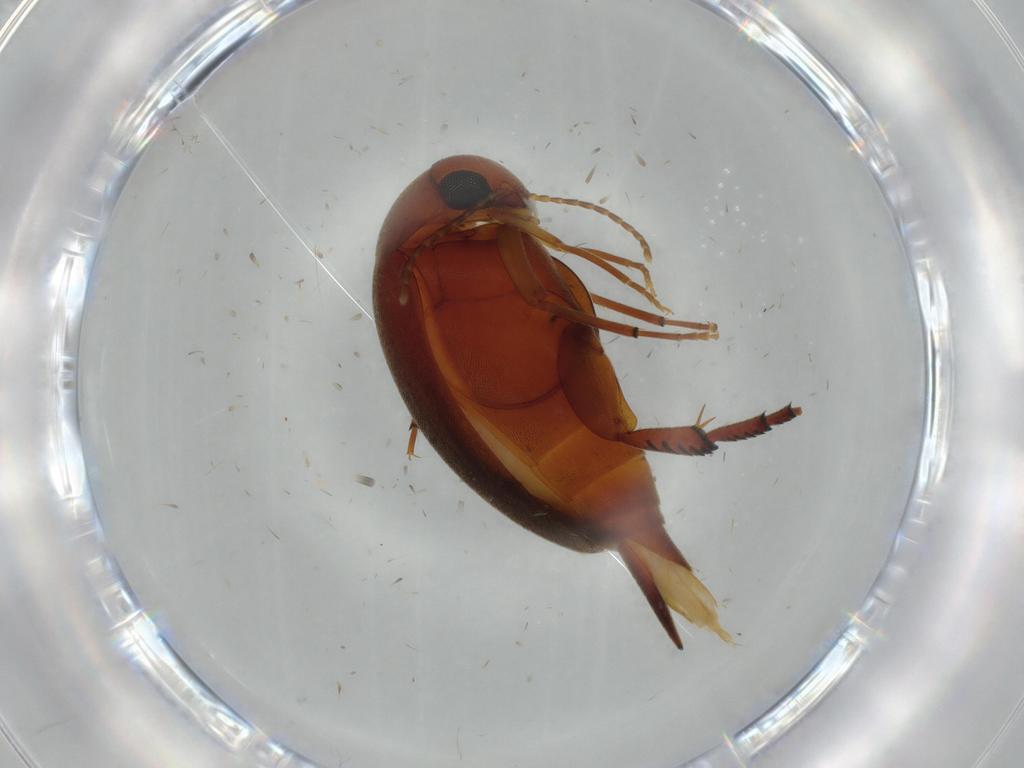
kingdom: Animalia
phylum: Arthropoda
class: Insecta
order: Coleoptera
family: Mordellidae
